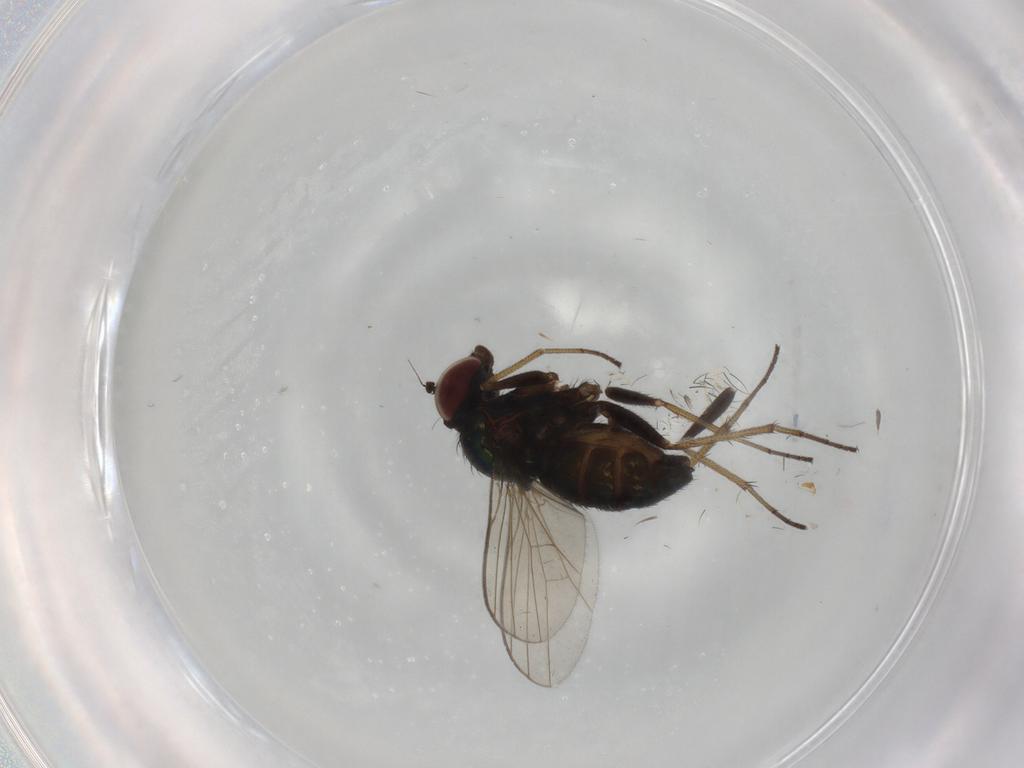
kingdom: Animalia
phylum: Arthropoda
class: Insecta
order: Diptera
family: Dolichopodidae
